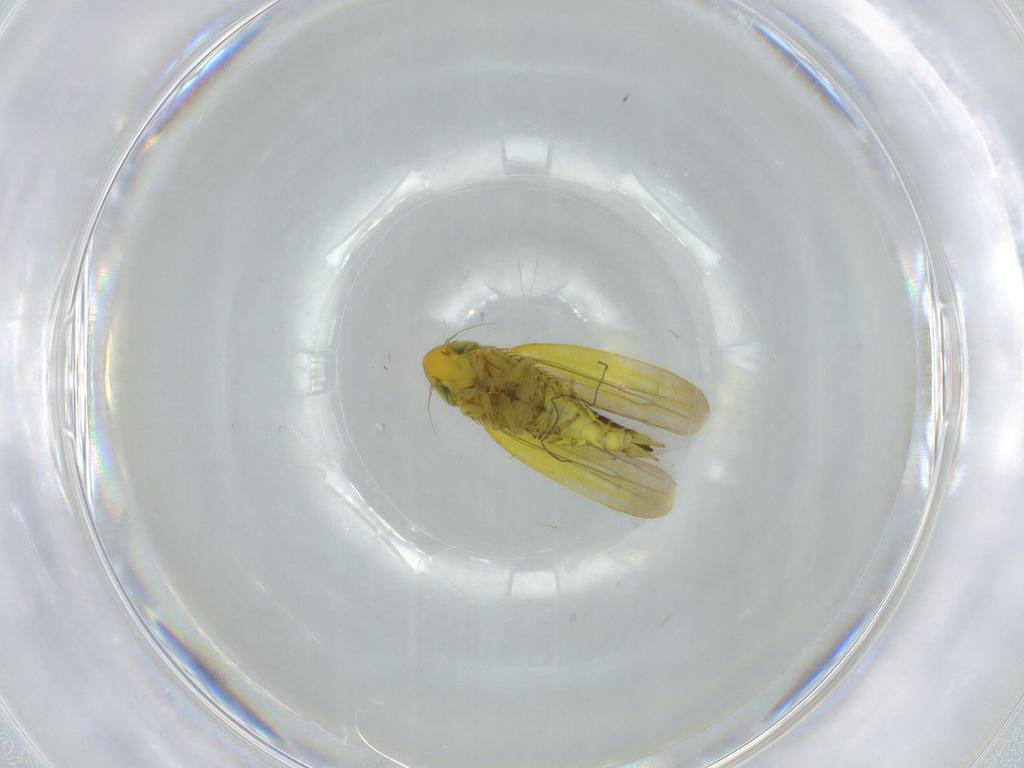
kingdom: Animalia
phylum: Arthropoda
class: Insecta
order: Hemiptera
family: Cicadellidae
